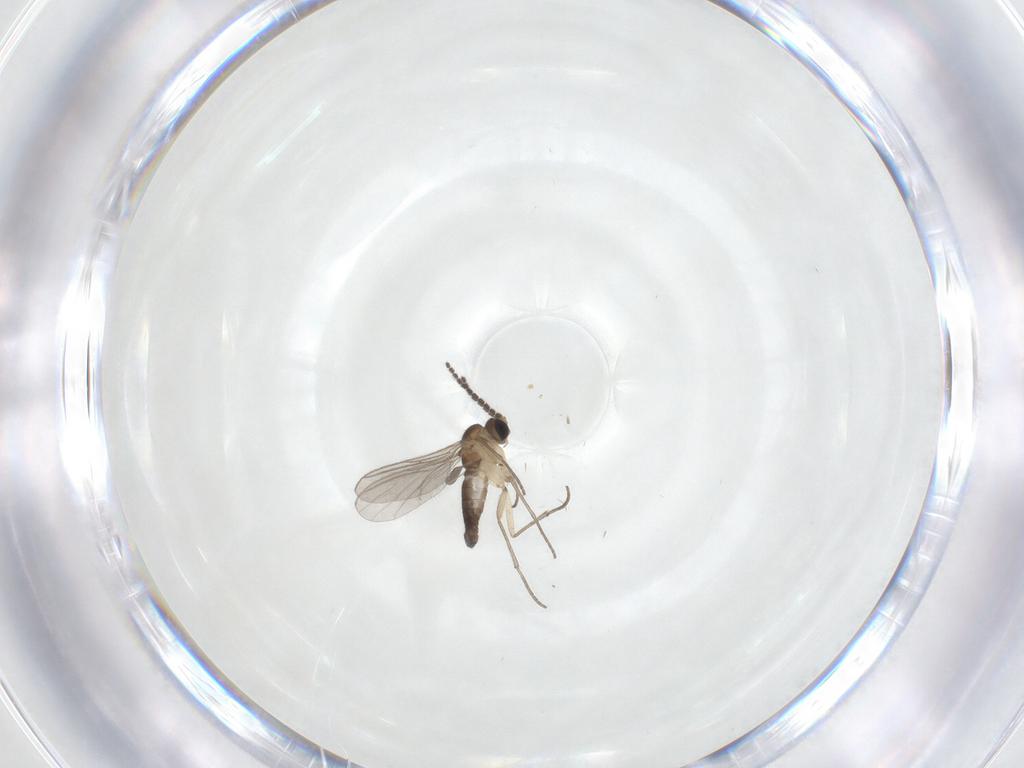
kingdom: Animalia
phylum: Arthropoda
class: Insecta
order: Diptera
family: Sciaridae
